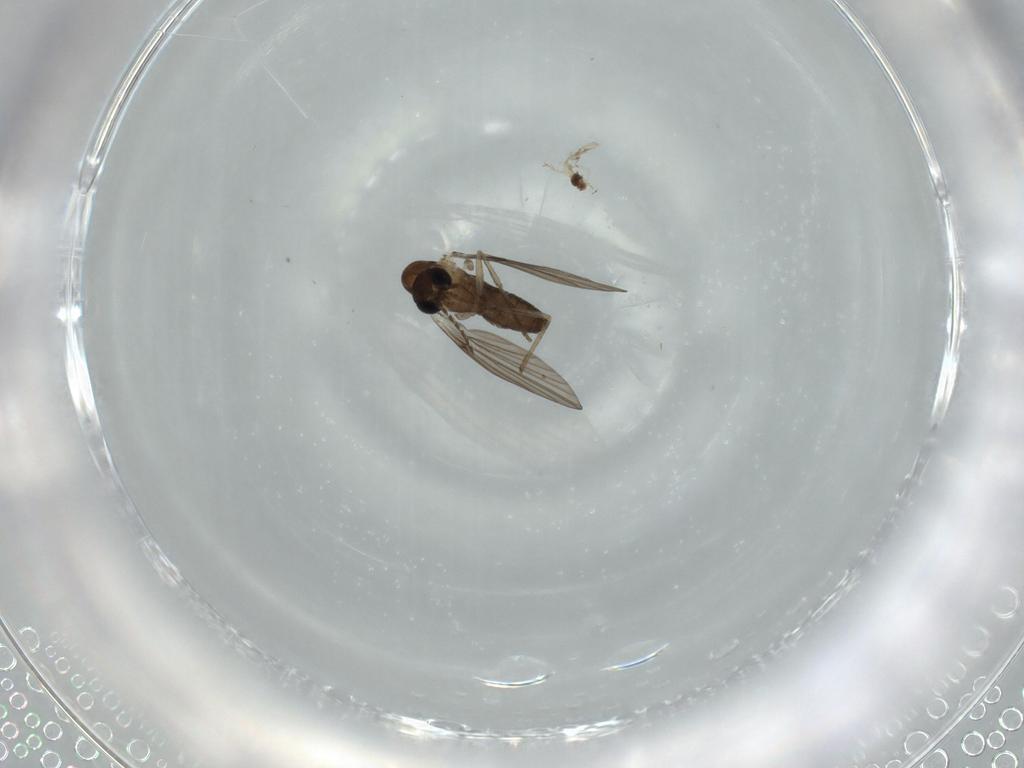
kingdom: Animalia
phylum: Arthropoda
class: Insecta
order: Diptera
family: Psychodidae
